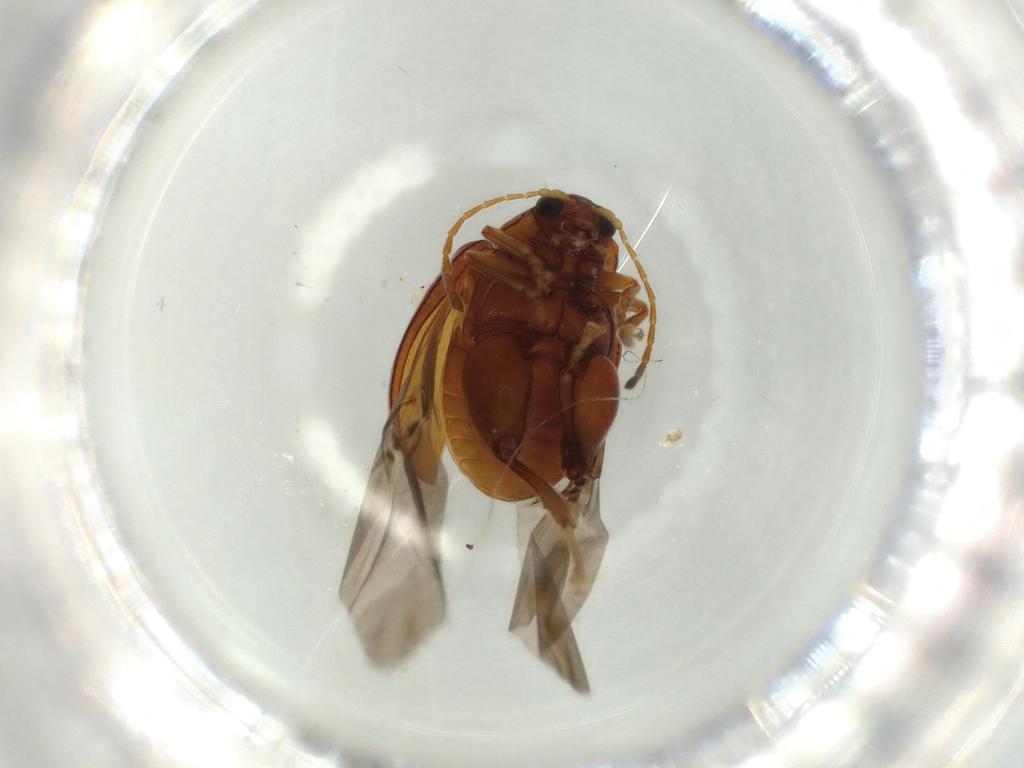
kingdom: Animalia
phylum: Arthropoda
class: Insecta
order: Coleoptera
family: Chrysomelidae
